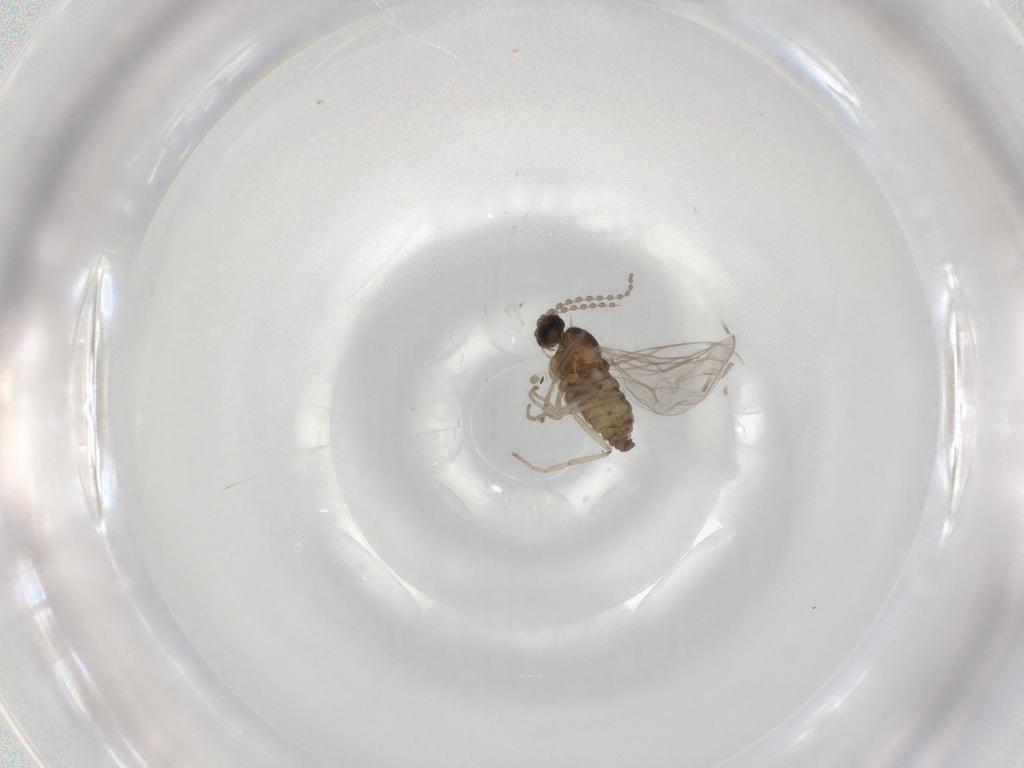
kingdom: Animalia
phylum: Arthropoda
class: Insecta
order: Diptera
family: Cecidomyiidae
